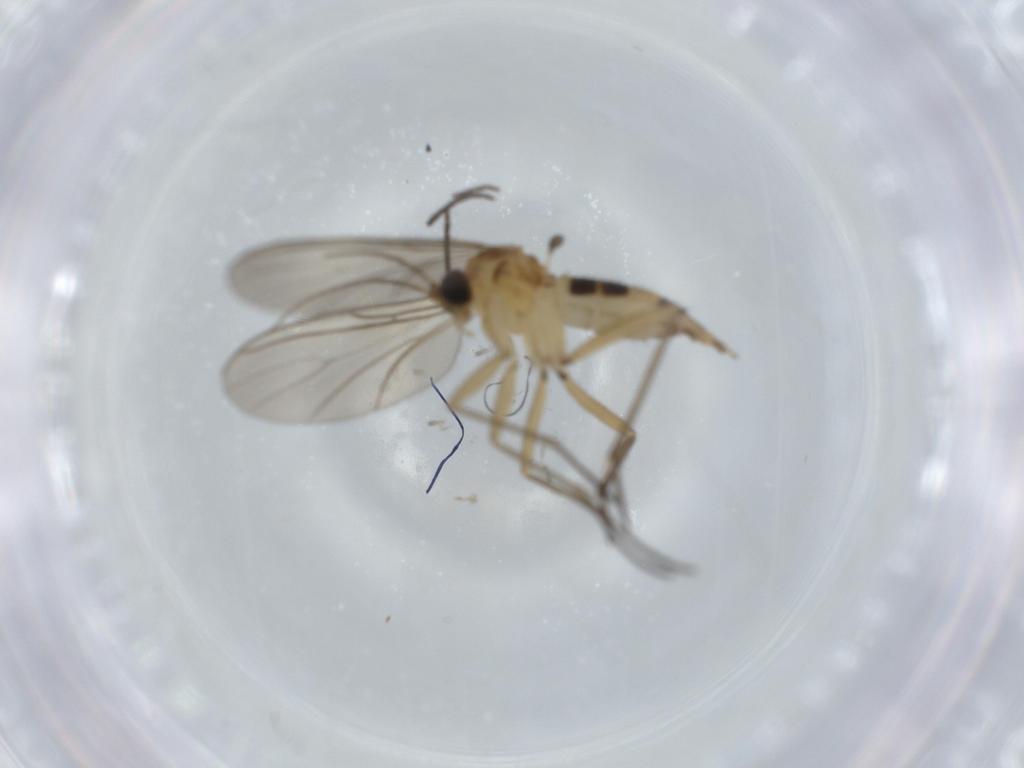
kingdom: Animalia
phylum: Arthropoda
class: Insecta
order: Diptera
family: Ceratopogonidae
